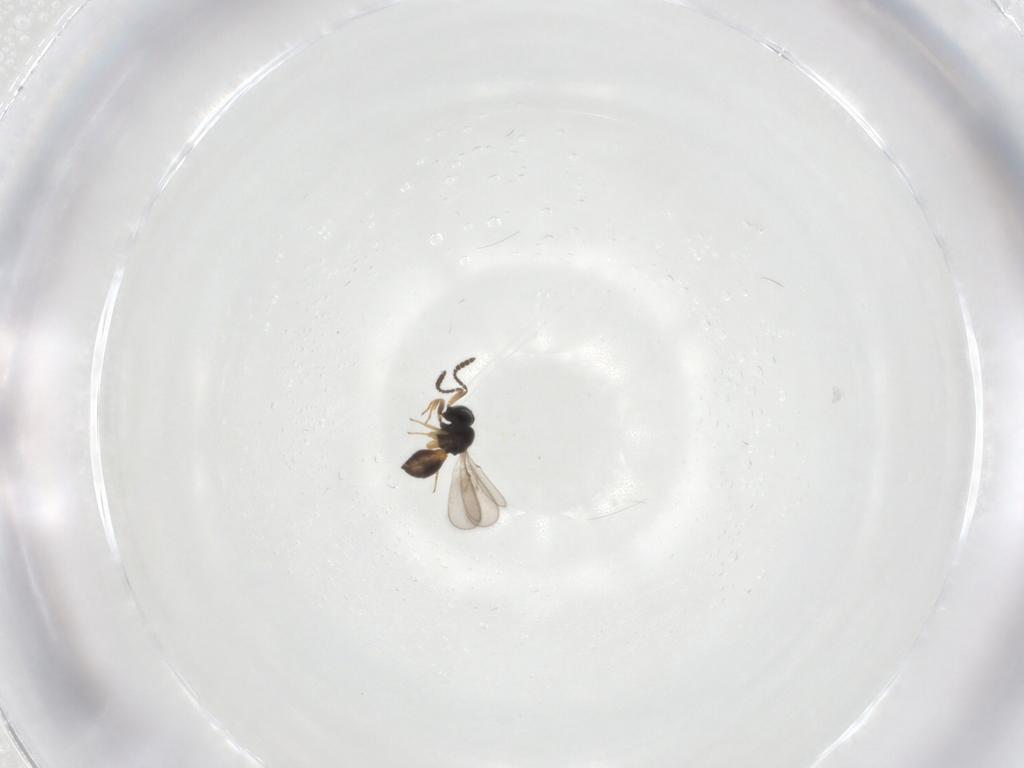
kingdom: Animalia
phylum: Arthropoda
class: Insecta
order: Hymenoptera
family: Scelionidae
